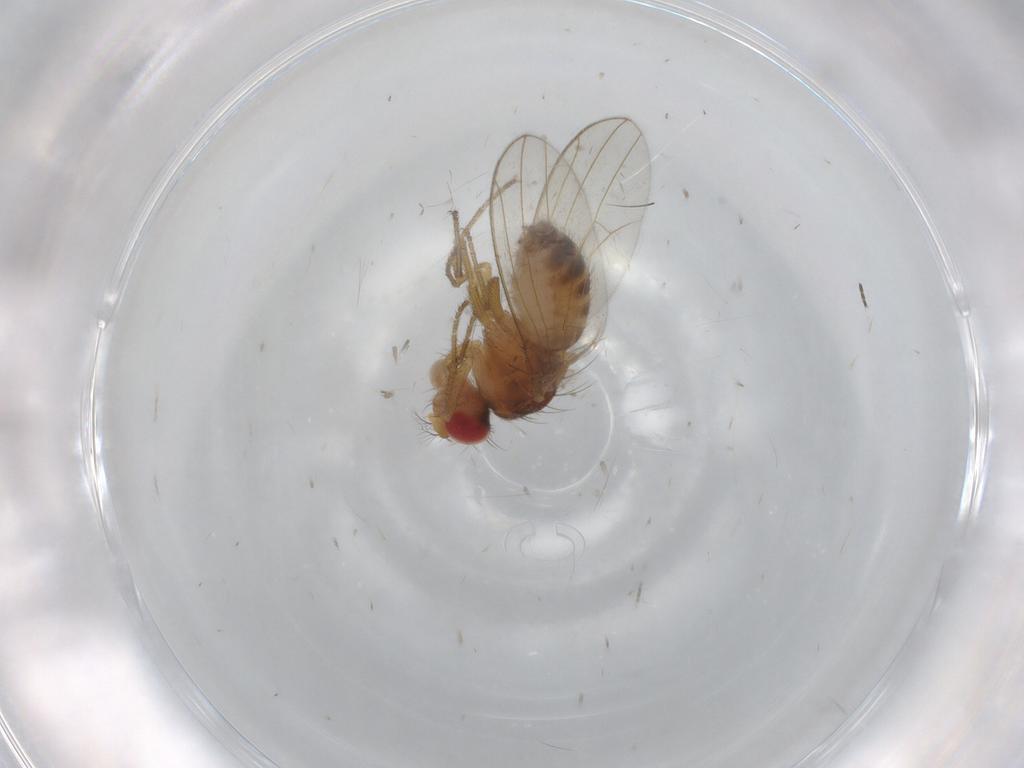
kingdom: Animalia
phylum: Arthropoda
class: Insecta
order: Diptera
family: Drosophilidae
